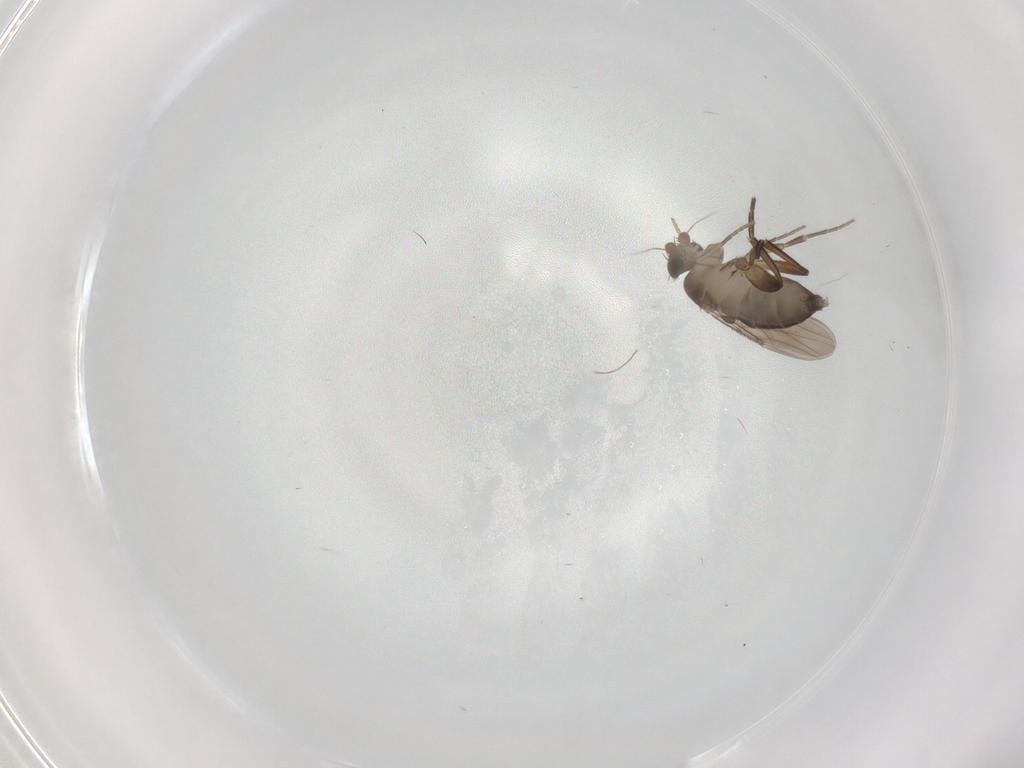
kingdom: Animalia
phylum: Arthropoda
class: Insecta
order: Diptera
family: Phoridae
